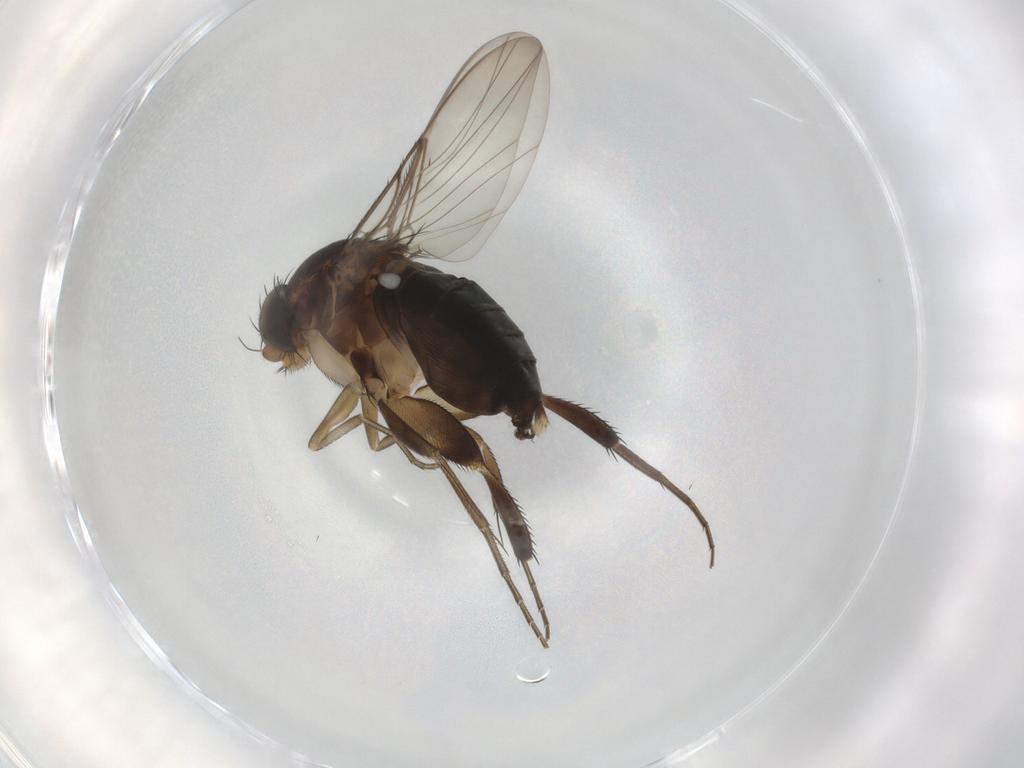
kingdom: Animalia
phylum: Arthropoda
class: Insecta
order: Diptera
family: Phoridae
